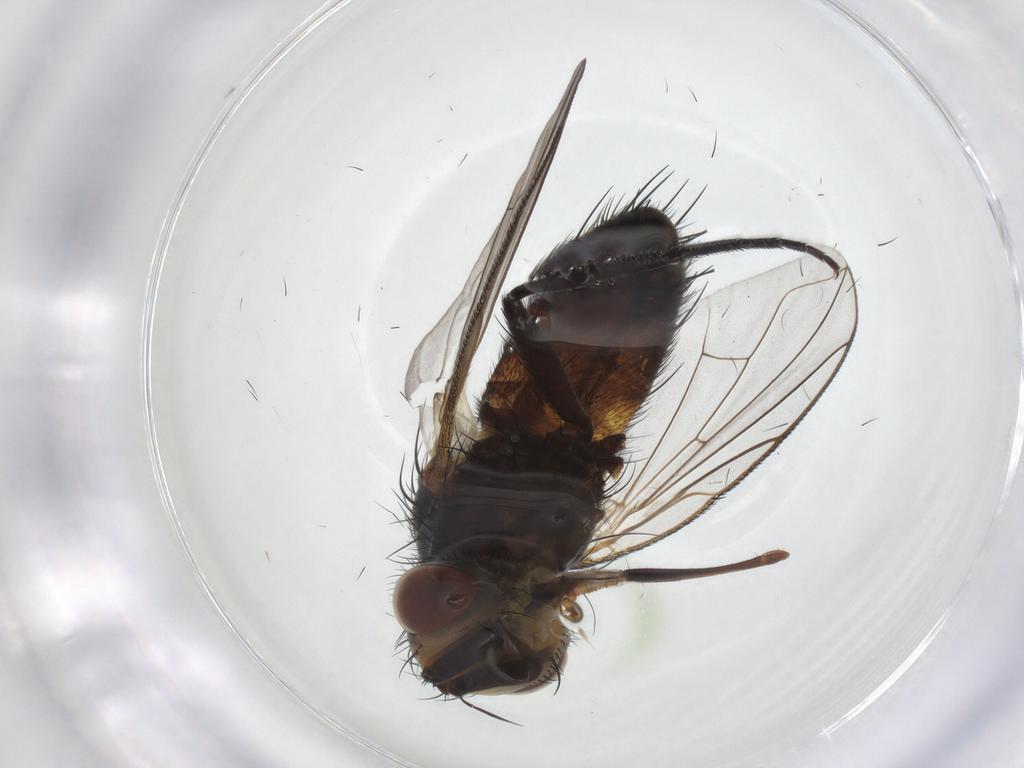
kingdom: Animalia
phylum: Arthropoda
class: Insecta
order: Diptera
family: Tachinidae
